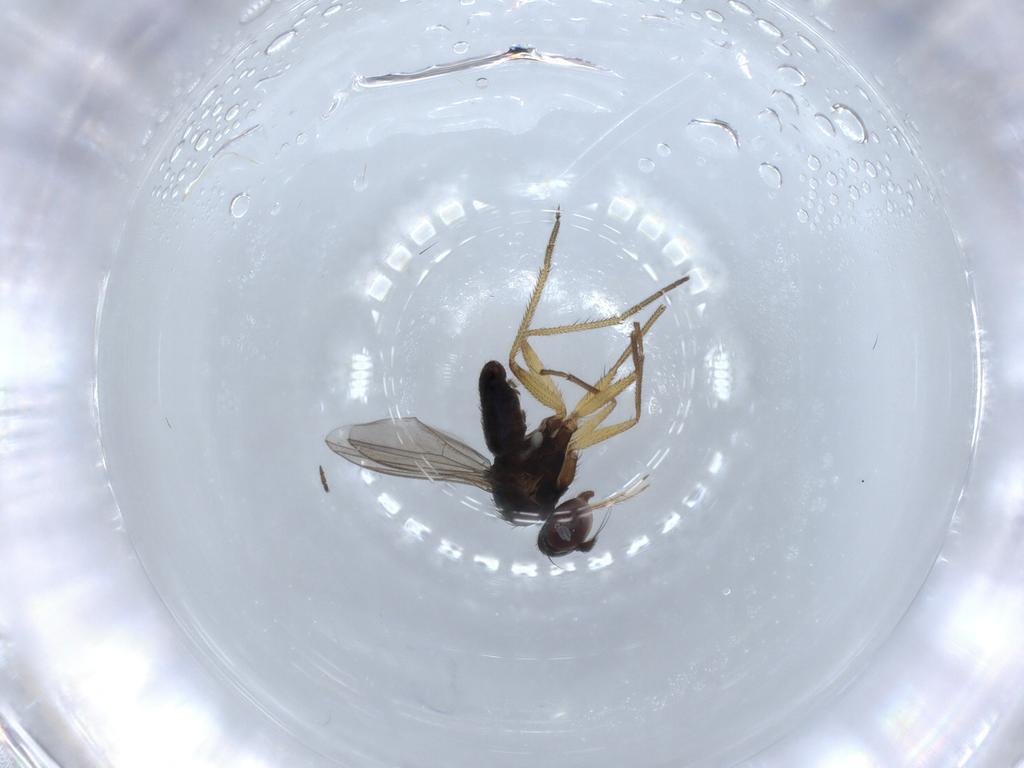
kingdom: Animalia
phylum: Arthropoda
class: Insecta
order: Diptera
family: Dolichopodidae
